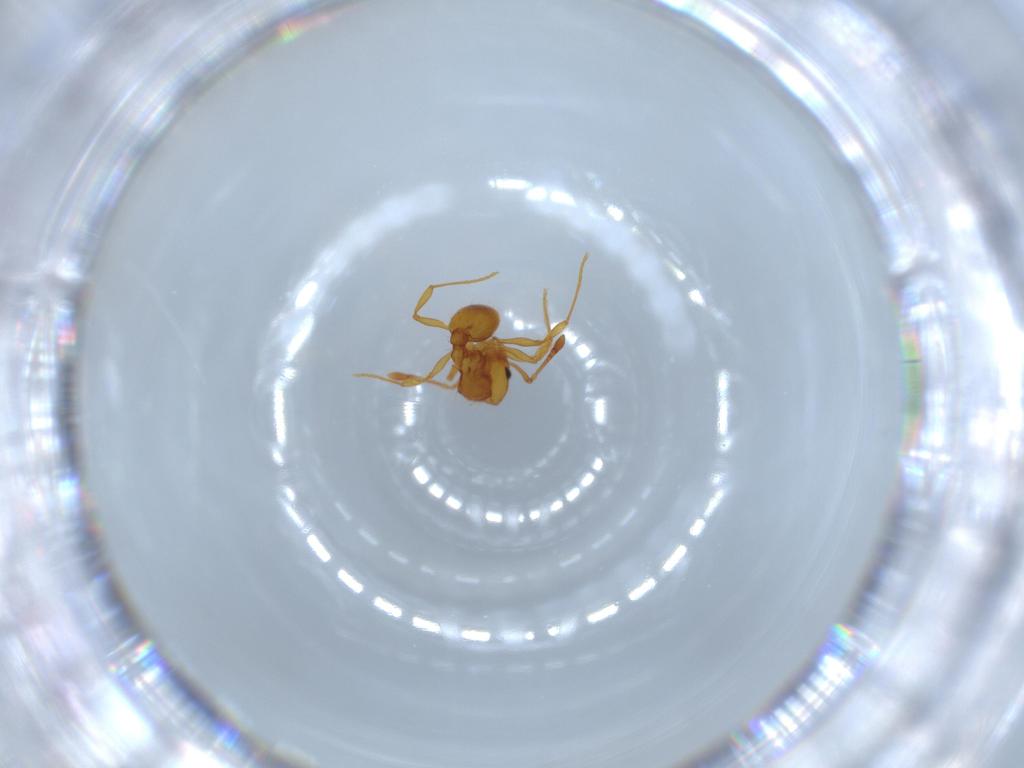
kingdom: Animalia
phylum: Arthropoda
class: Insecta
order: Hymenoptera
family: Formicidae
